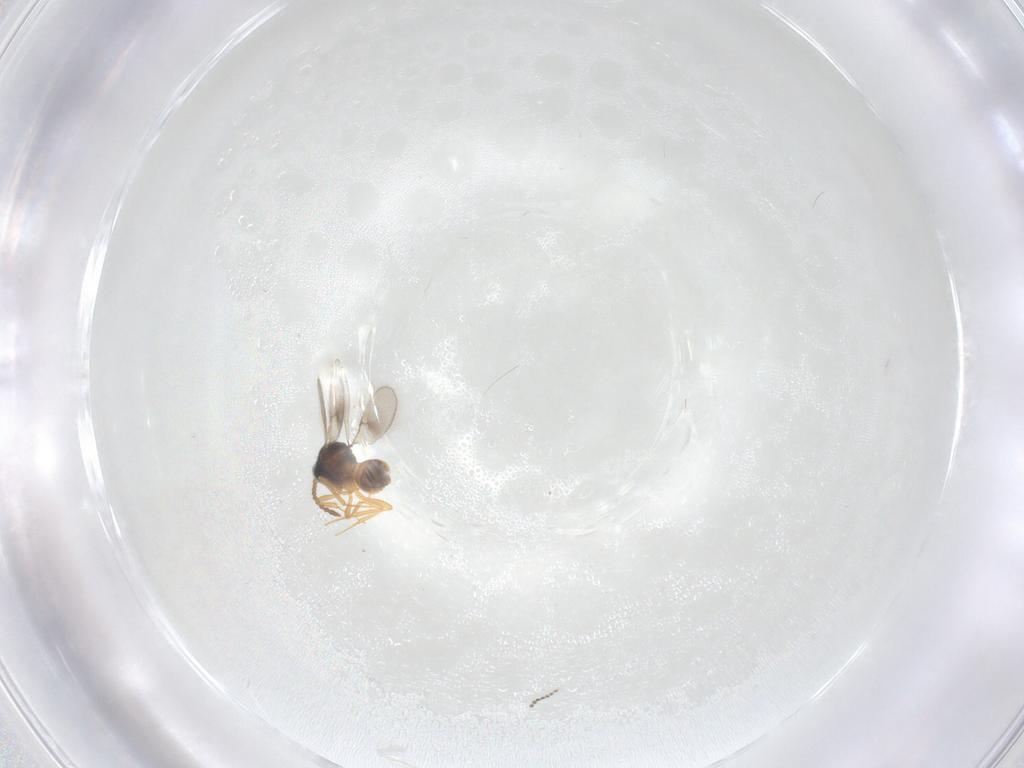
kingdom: Animalia
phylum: Arthropoda
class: Insecta
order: Hymenoptera
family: Scelionidae
